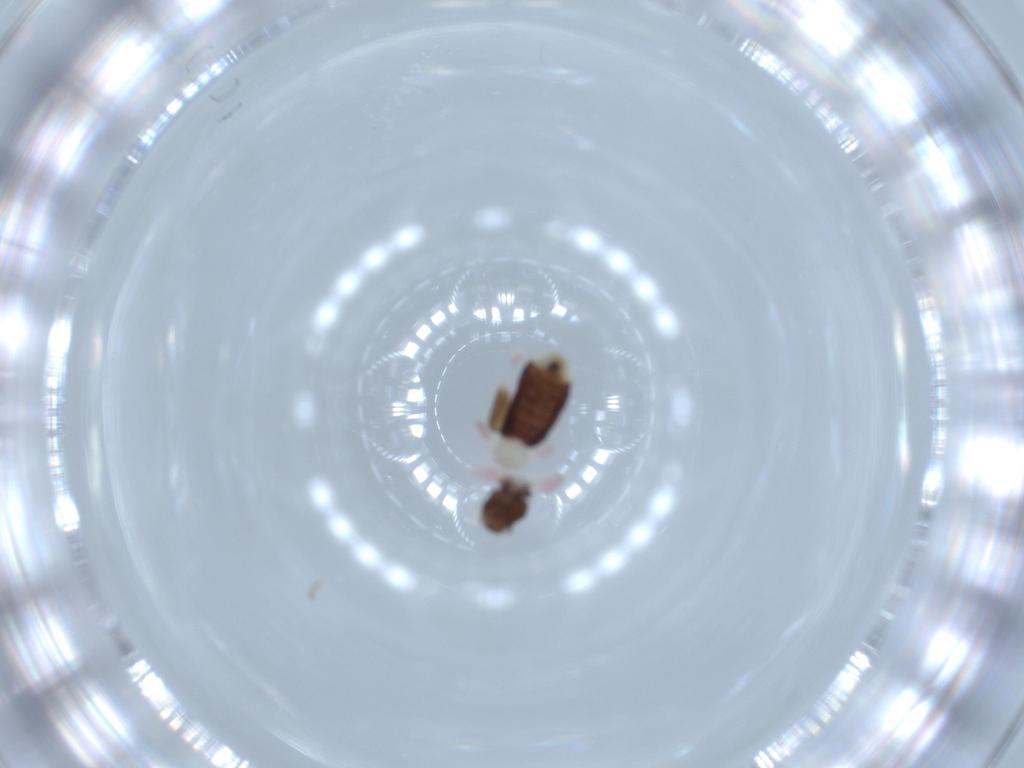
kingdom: Animalia
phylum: Arthropoda
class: Insecta
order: Psocodea
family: Liposcelididae
